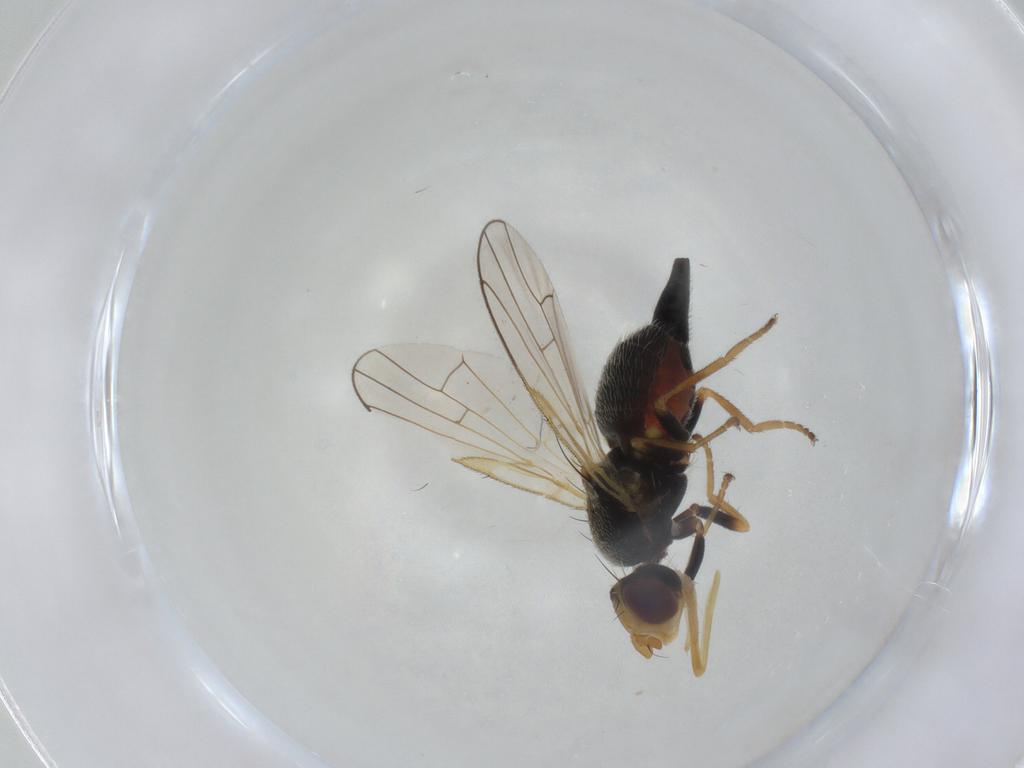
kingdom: Animalia
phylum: Arthropoda
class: Insecta
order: Diptera
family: Tephritidae
